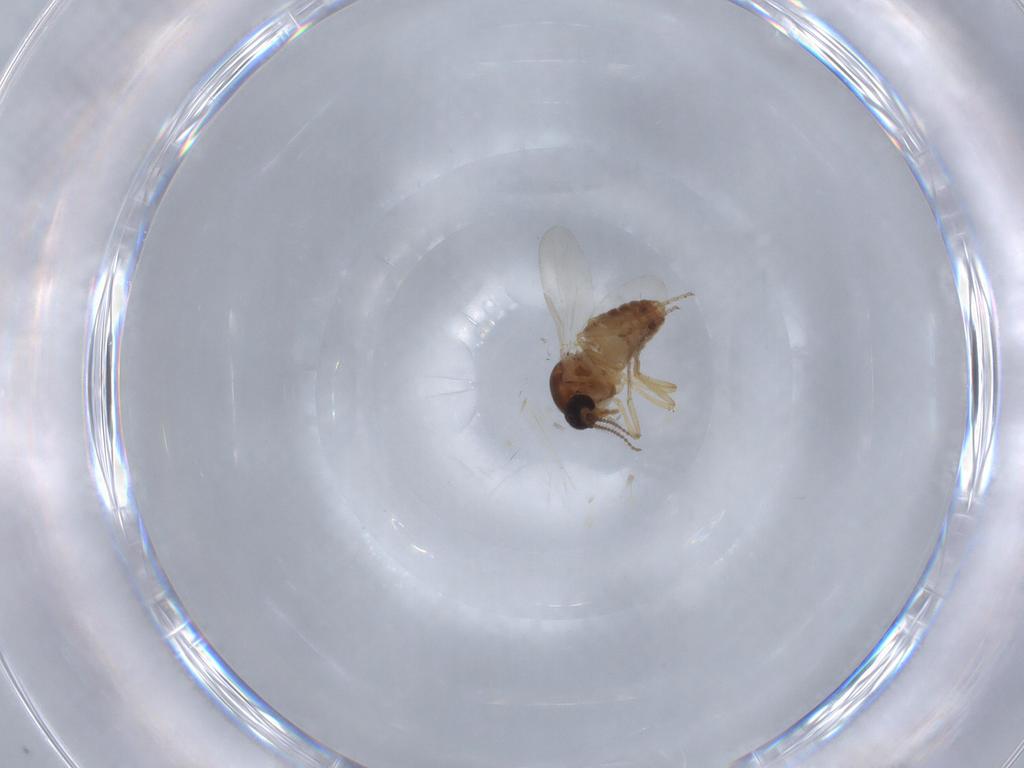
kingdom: Animalia
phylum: Arthropoda
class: Insecta
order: Diptera
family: Ceratopogonidae
